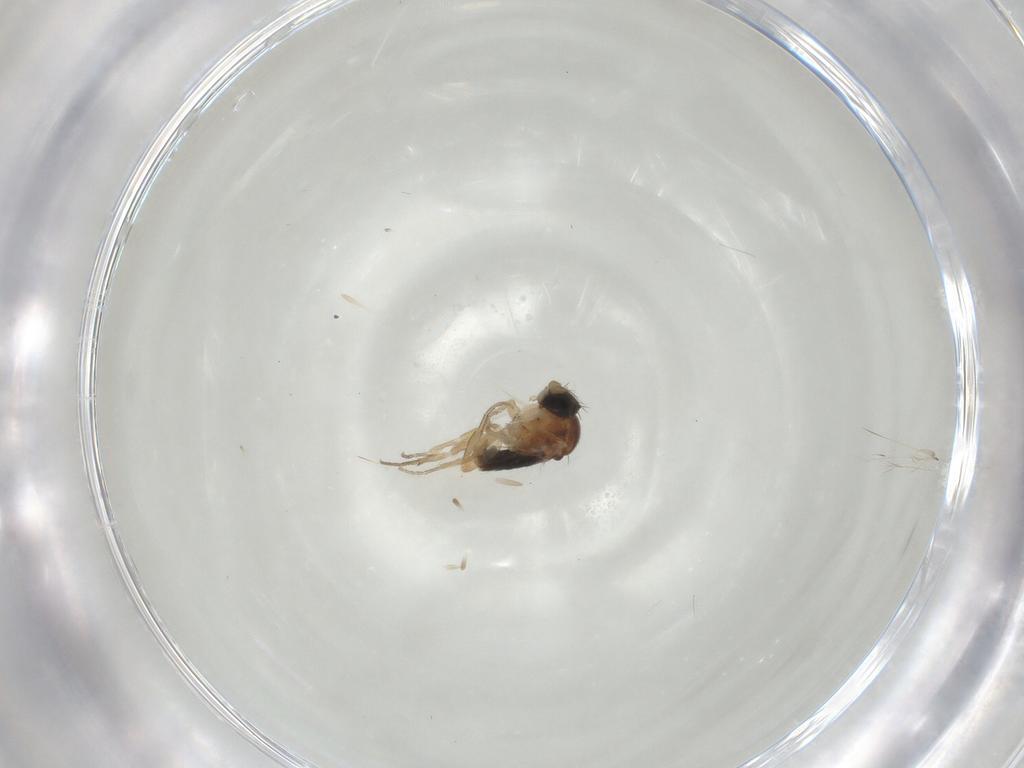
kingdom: Animalia
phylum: Arthropoda
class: Insecta
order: Diptera
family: Phoridae
